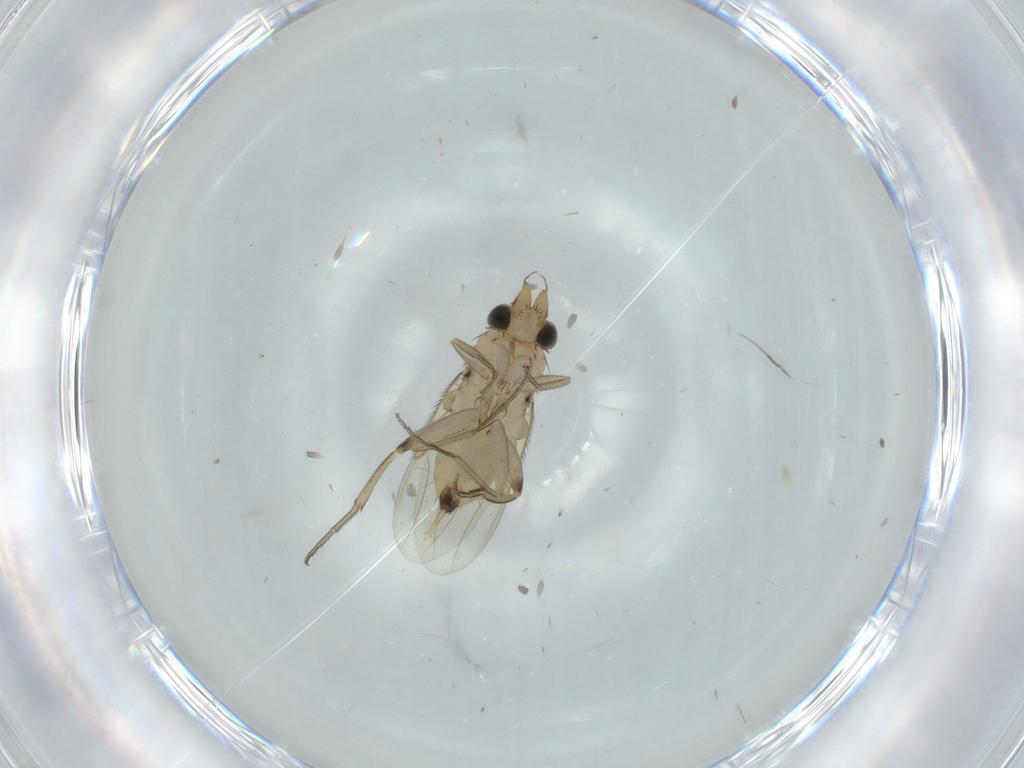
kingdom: Animalia
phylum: Arthropoda
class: Insecta
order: Diptera
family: Phoridae
